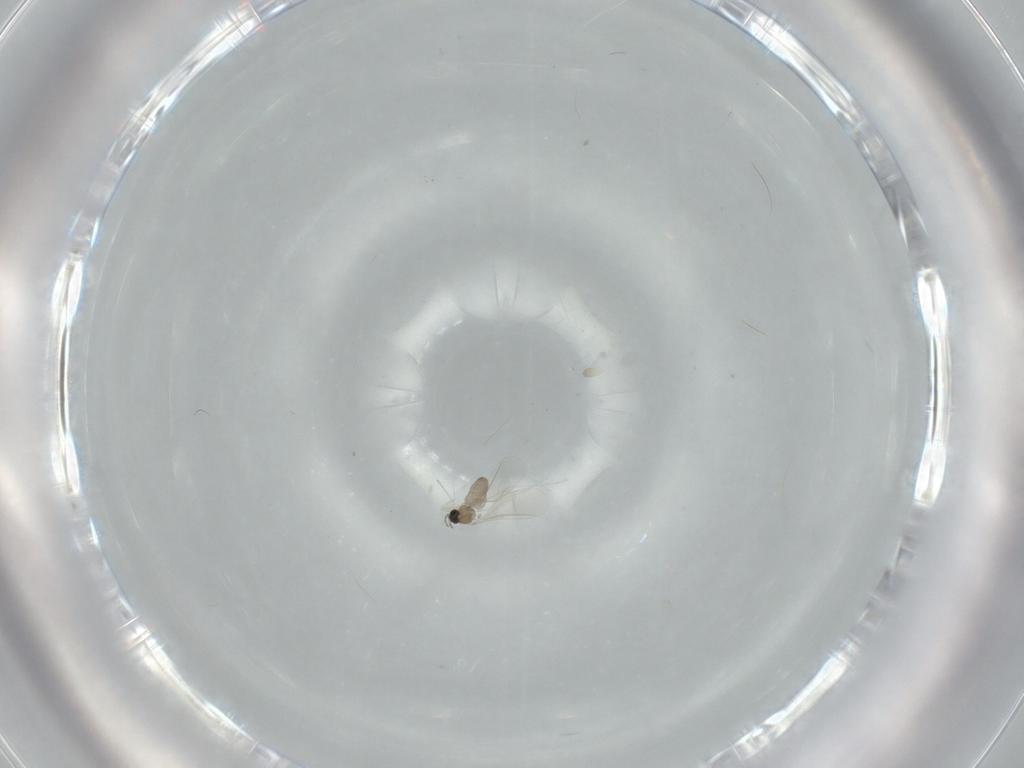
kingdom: Animalia
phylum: Arthropoda
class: Insecta
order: Diptera
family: Cecidomyiidae
